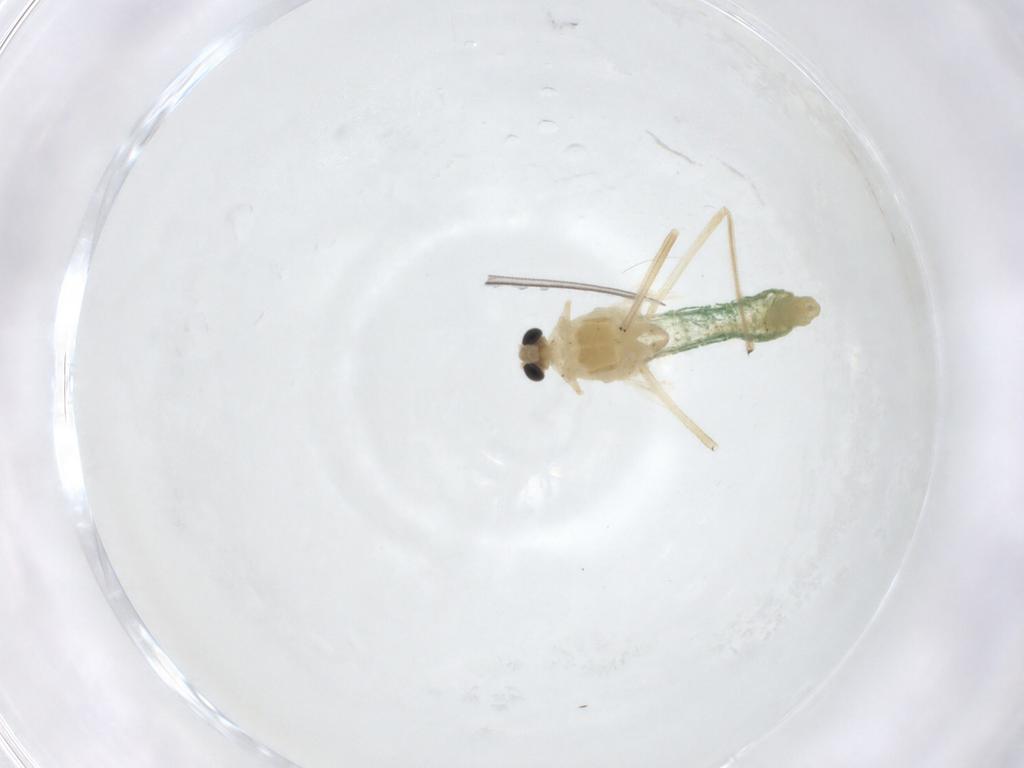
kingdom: Animalia
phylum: Arthropoda
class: Insecta
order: Diptera
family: Chironomidae
